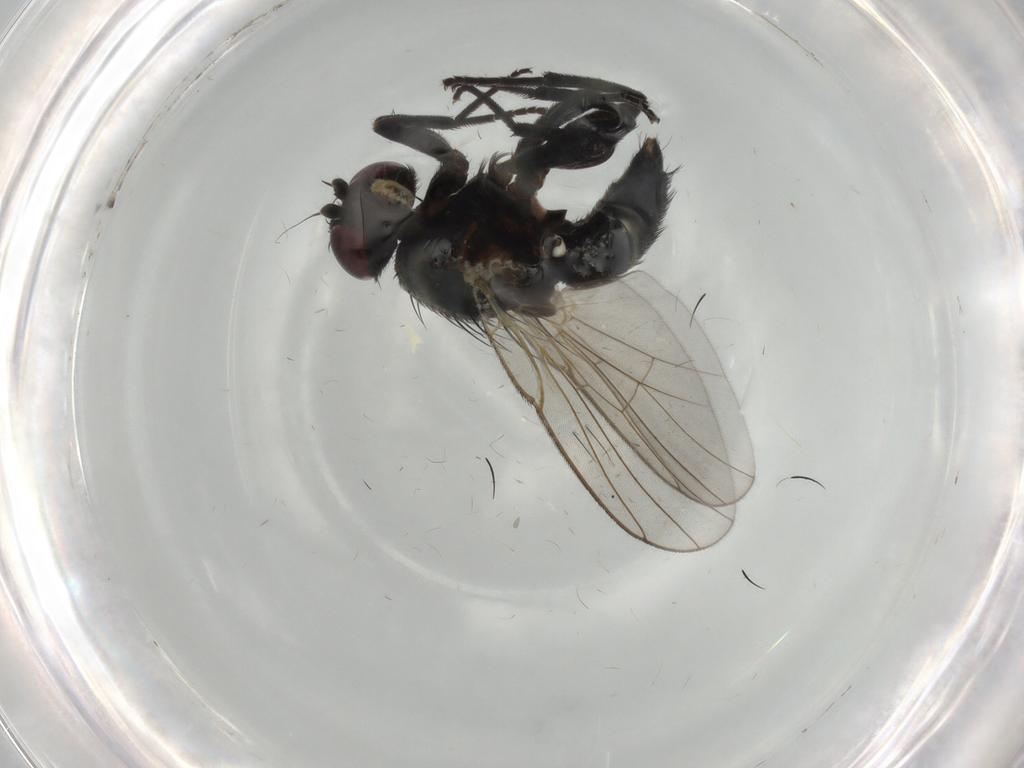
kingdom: Animalia
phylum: Arthropoda
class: Insecta
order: Diptera
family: Agromyzidae
